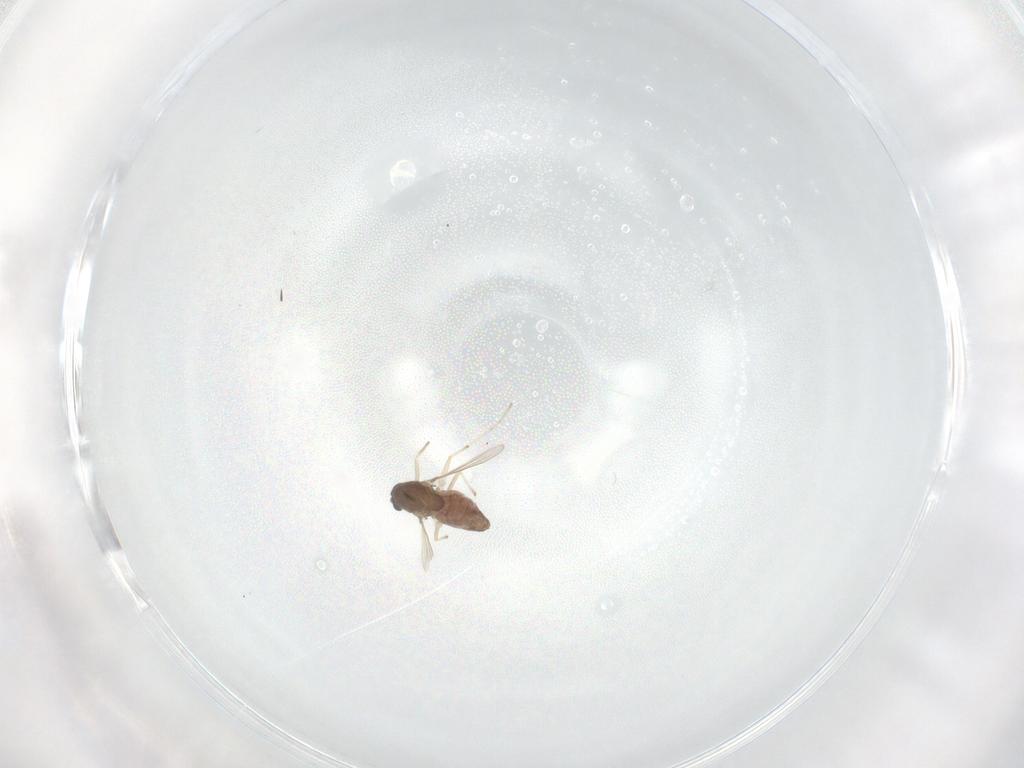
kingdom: Animalia
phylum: Arthropoda
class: Insecta
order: Diptera
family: Chironomidae
